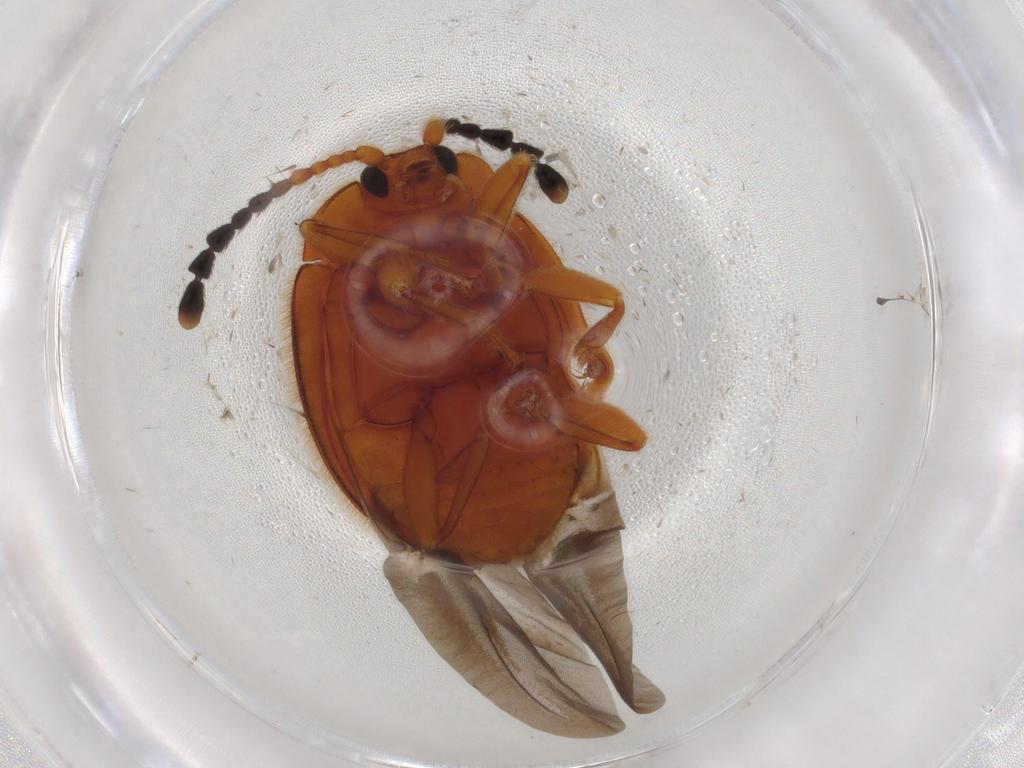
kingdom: Animalia
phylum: Arthropoda
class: Insecta
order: Coleoptera
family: Endomychidae
